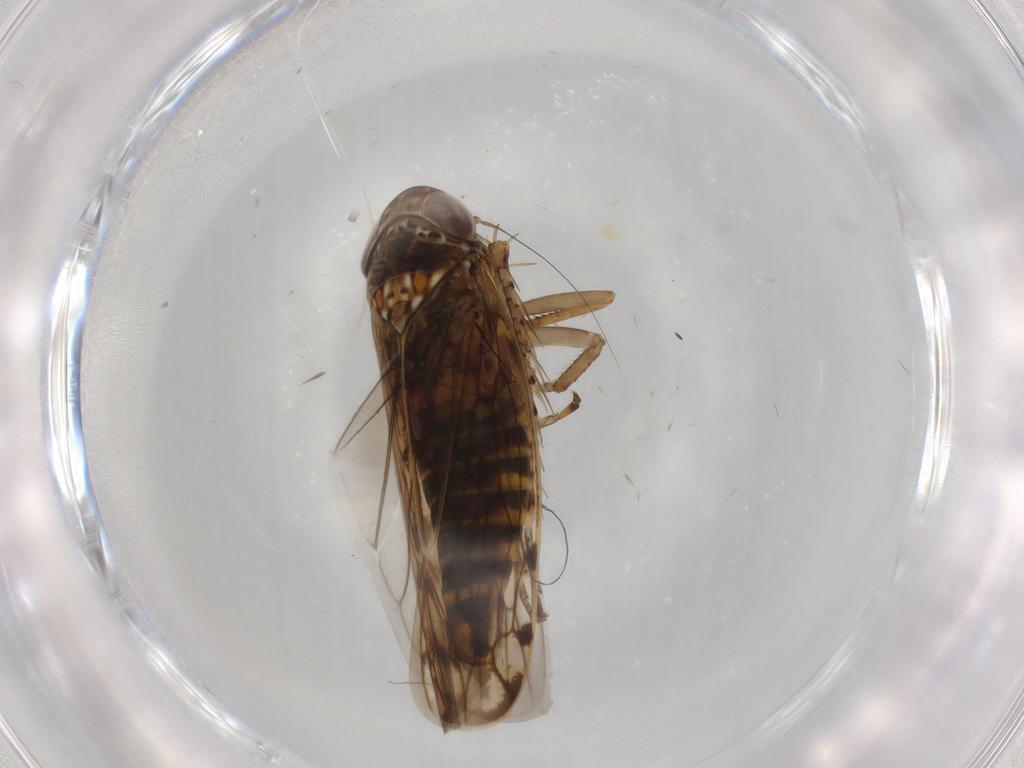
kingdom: Animalia
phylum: Arthropoda
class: Insecta
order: Hemiptera
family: Cicadellidae
